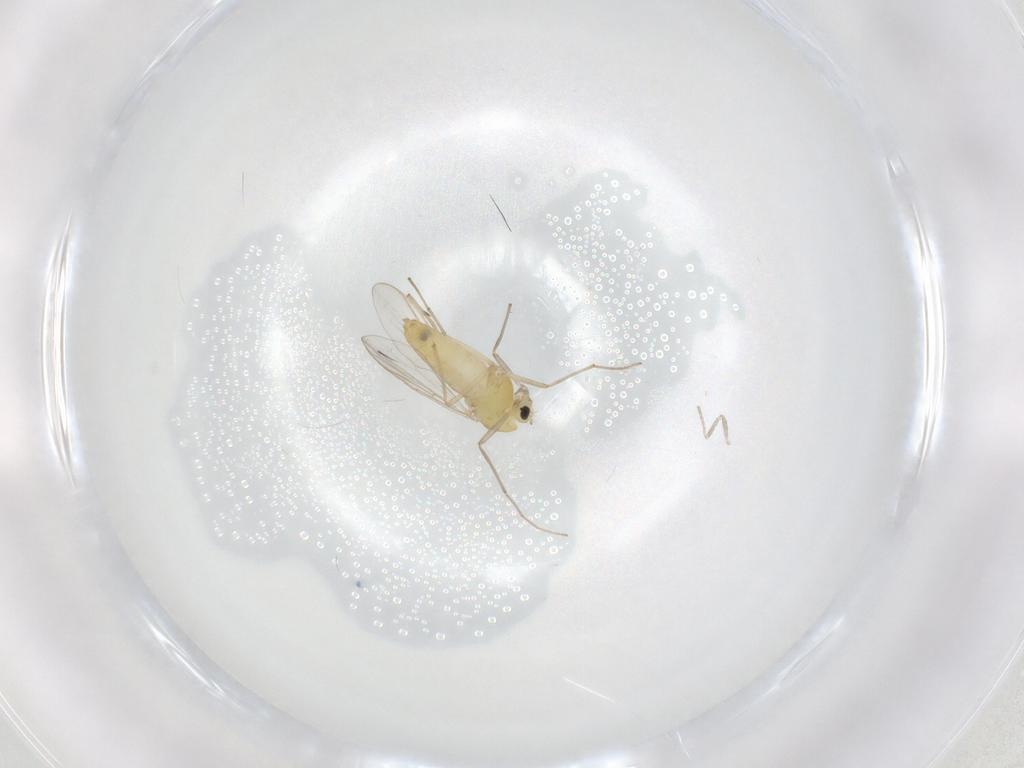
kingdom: Animalia
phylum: Arthropoda
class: Insecta
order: Diptera
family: Chironomidae
